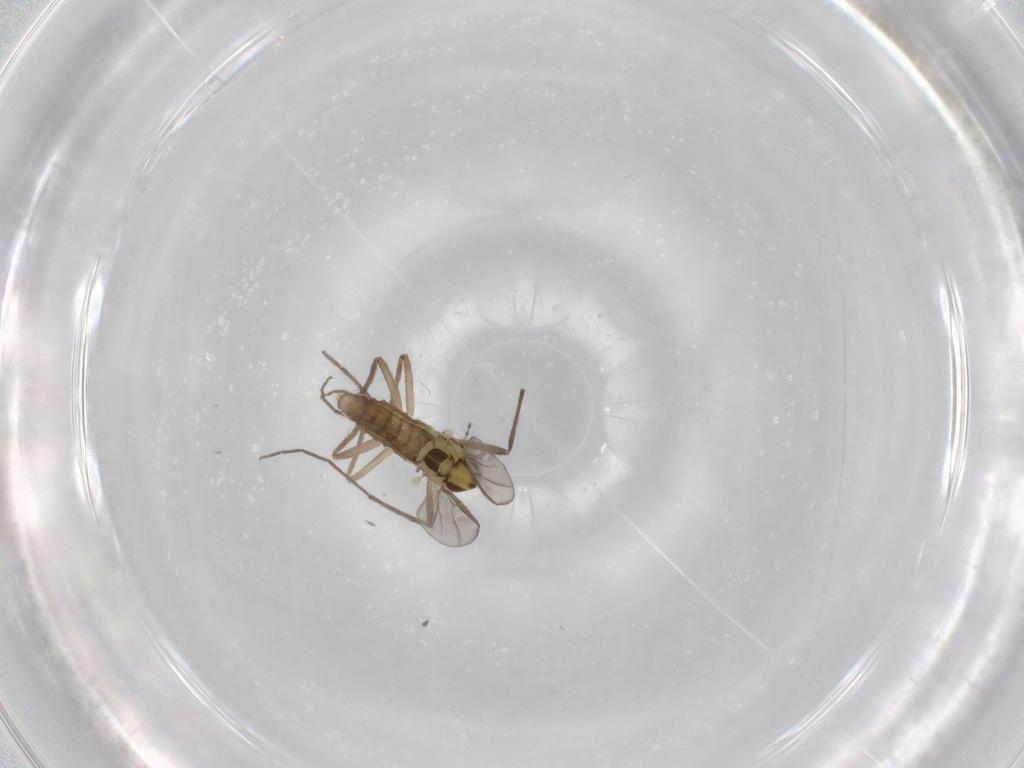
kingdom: Animalia
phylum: Arthropoda
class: Insecta
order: Diptera
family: Chironomidae
